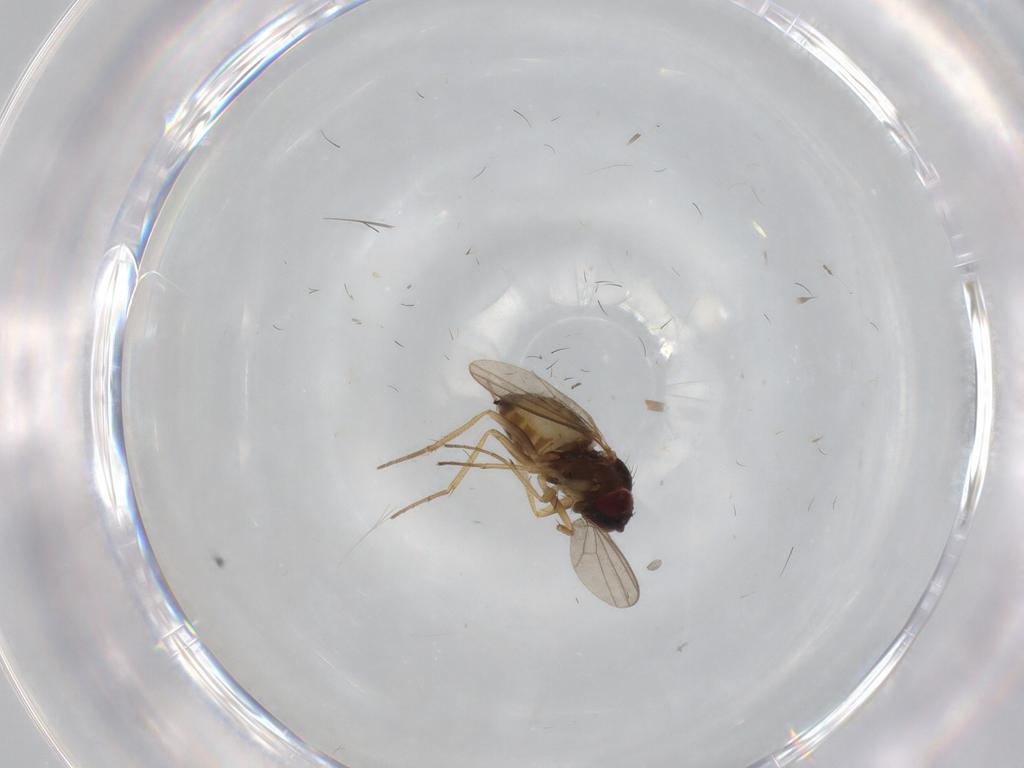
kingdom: Animalia
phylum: Arthropoda
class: Insecta
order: Diptera
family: Dolichopodidae
